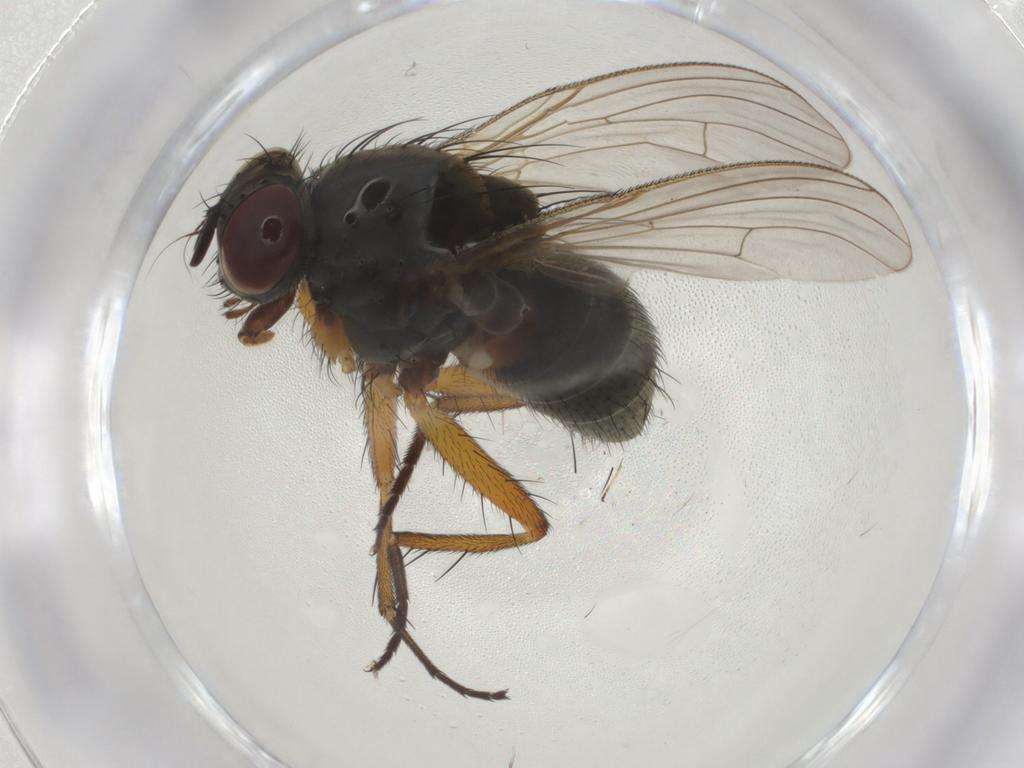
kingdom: Animalia
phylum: Arthropoda
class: Insecta
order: Diptera
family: Muscidae
